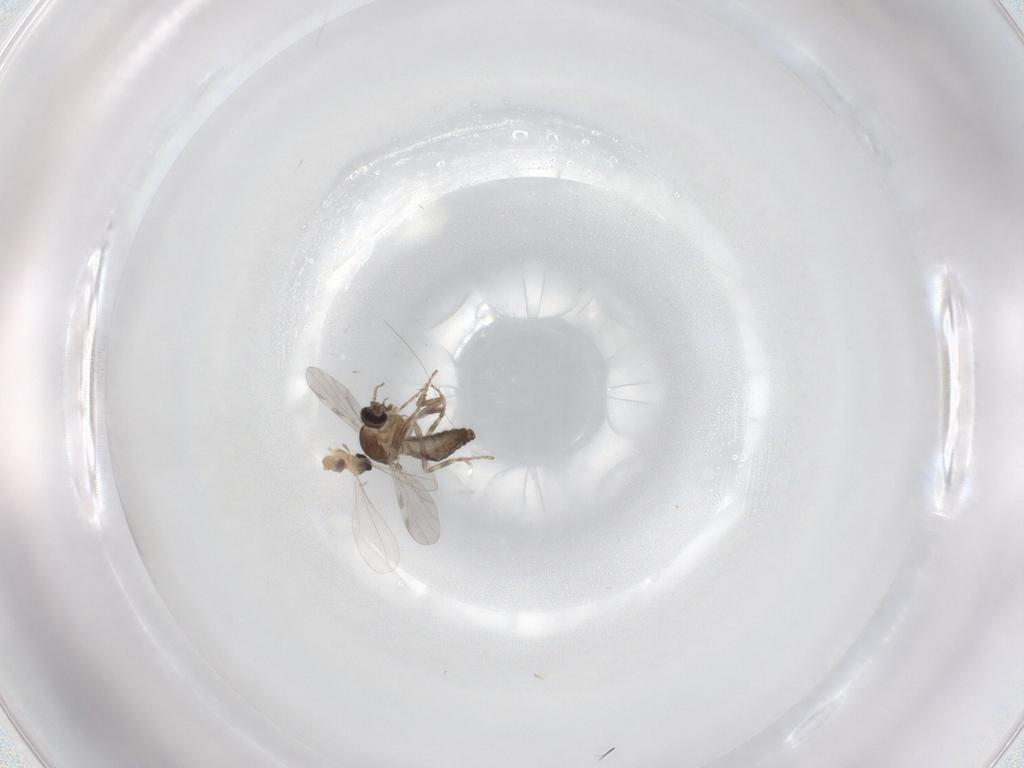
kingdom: Animalia
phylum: Arthropoda
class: Insecta
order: Diptera
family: Ceratopogonidae
